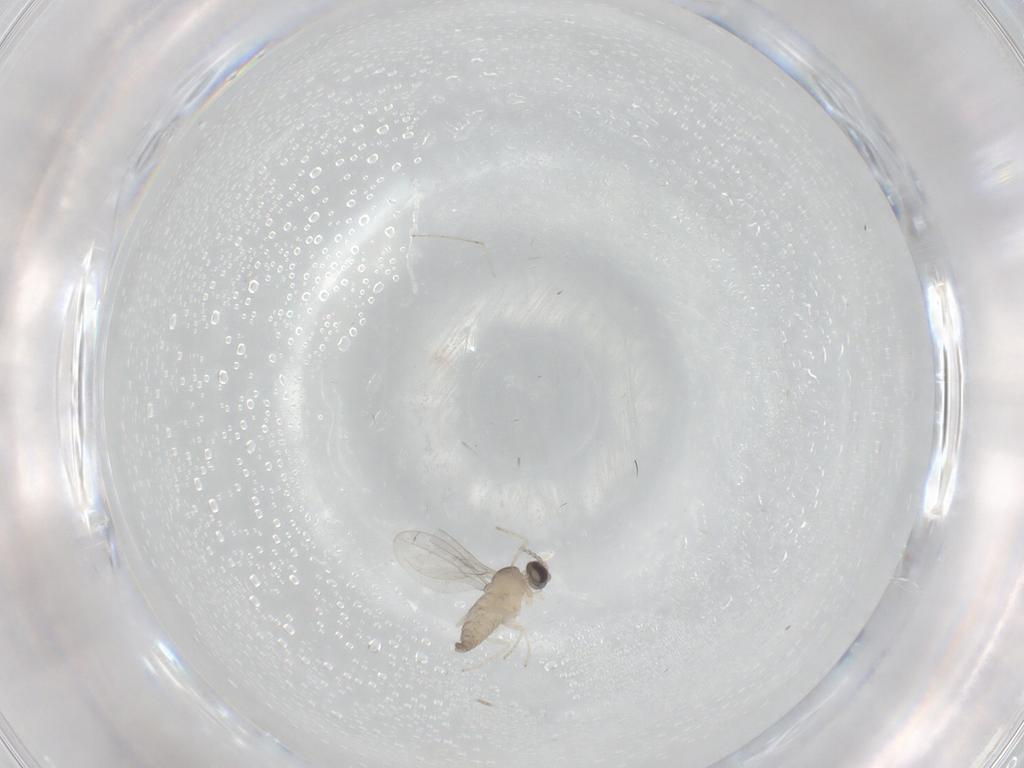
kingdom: Animalia
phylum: Arthropoda
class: Insecta
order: Diptera
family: Cecidomyiidae
